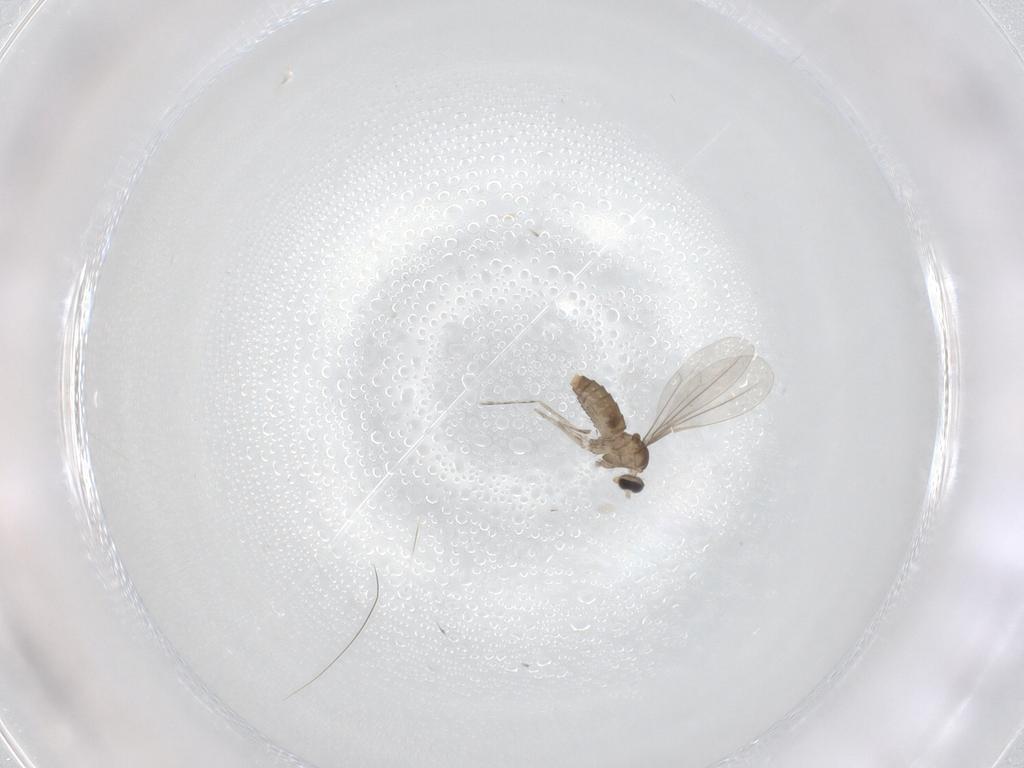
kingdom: Animalia
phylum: Arthropoda
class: Insecta
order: Diptera
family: Cecidomyiidae
